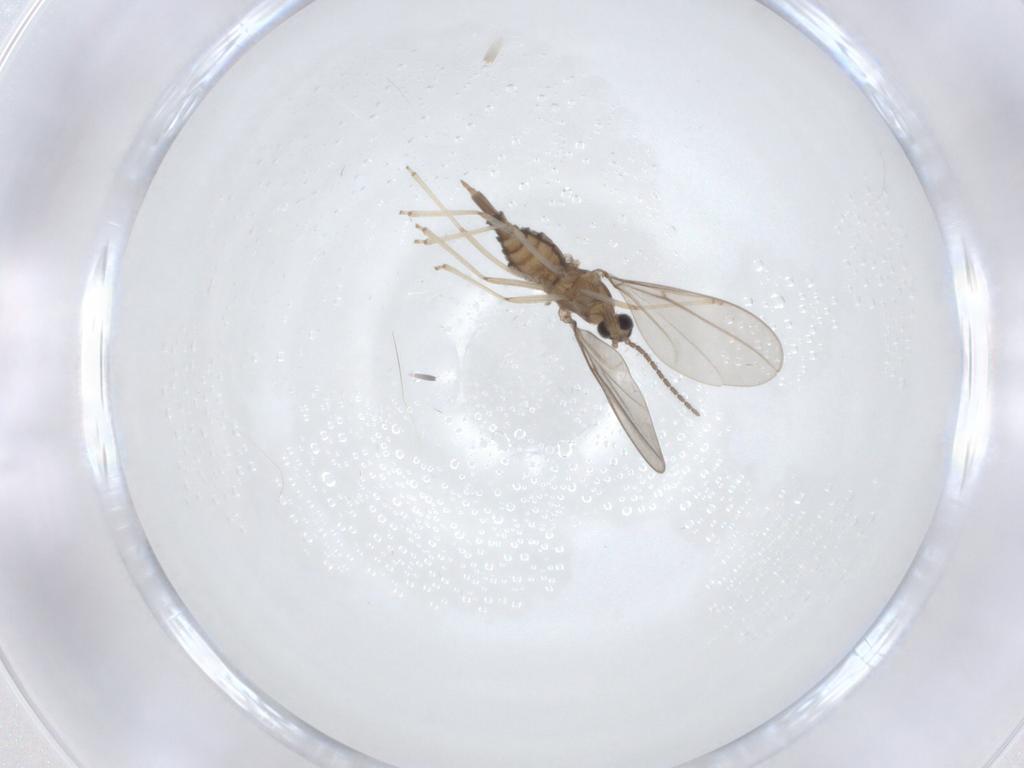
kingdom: Animalia
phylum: Arthropoda
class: Insecta
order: Diptera
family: Cecidomyiidae
